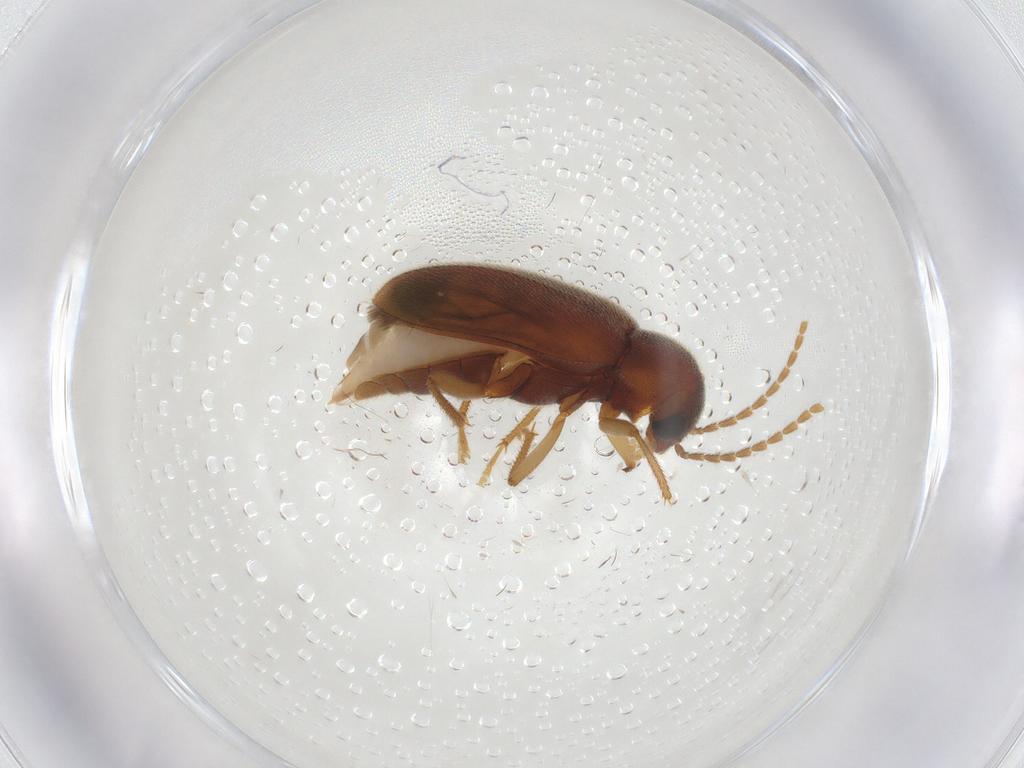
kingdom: Animalia
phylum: Arthropoda
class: Insecta
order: Coleoptera
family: Ptilodactylidae
